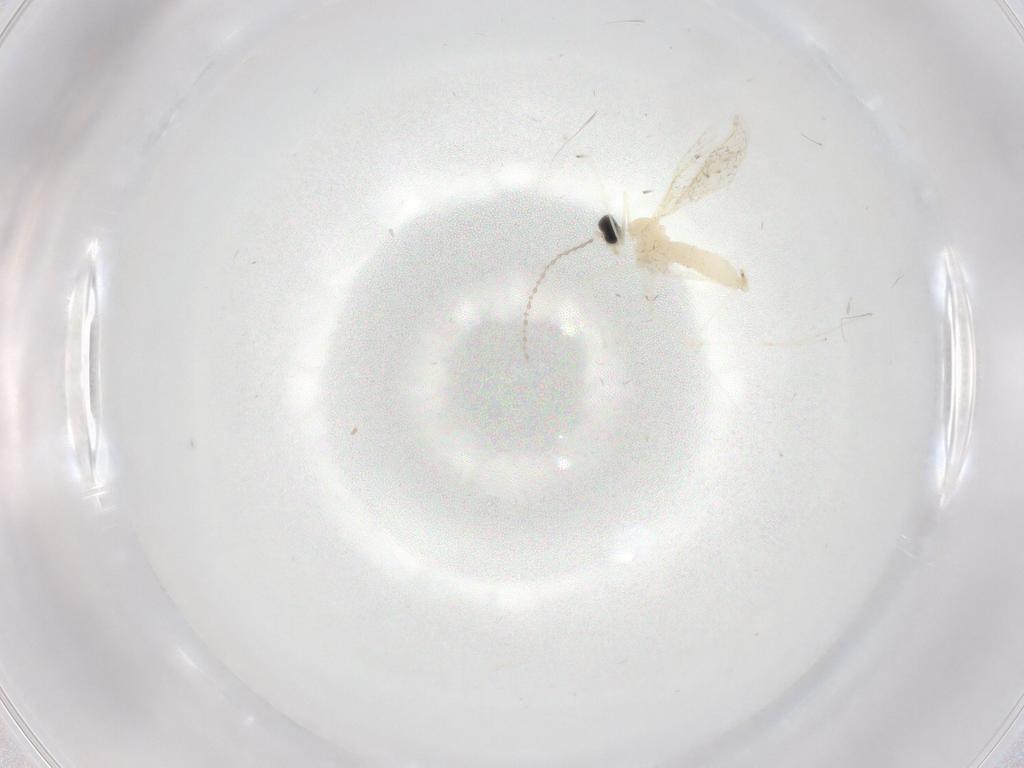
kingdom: Animalia
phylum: Arthropoda
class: Insecta
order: Diptera
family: Cecidomyiidae
